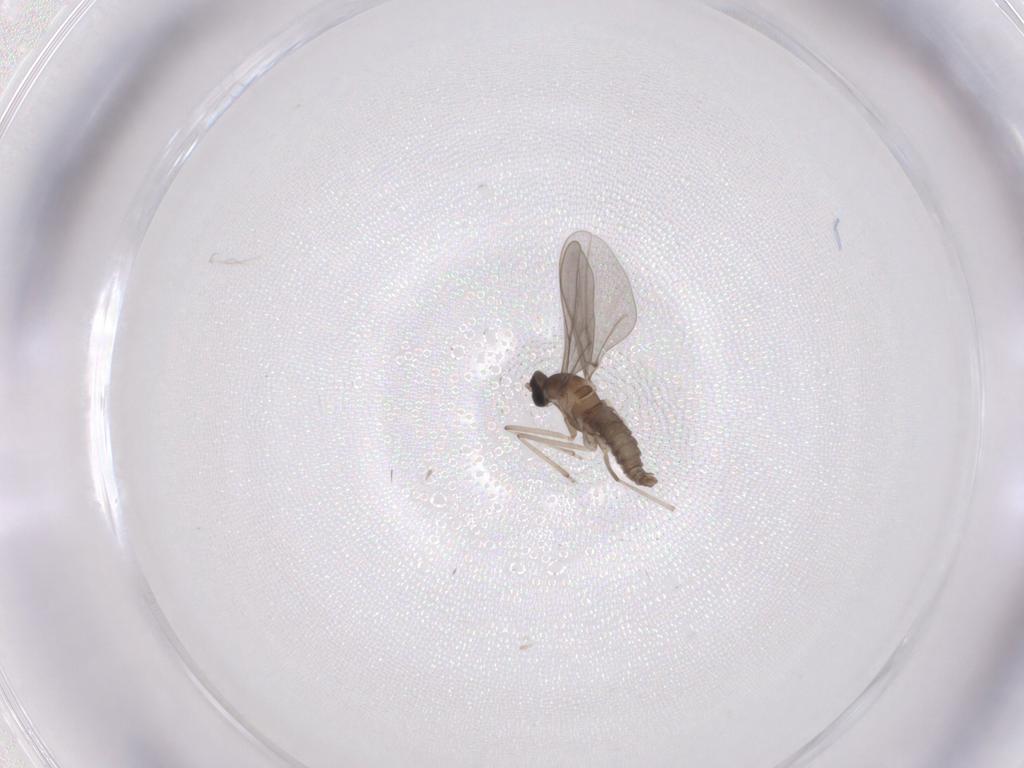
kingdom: Animalia
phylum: Arthropoda
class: Insecta
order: Diptera
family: Cecidomyiidae
